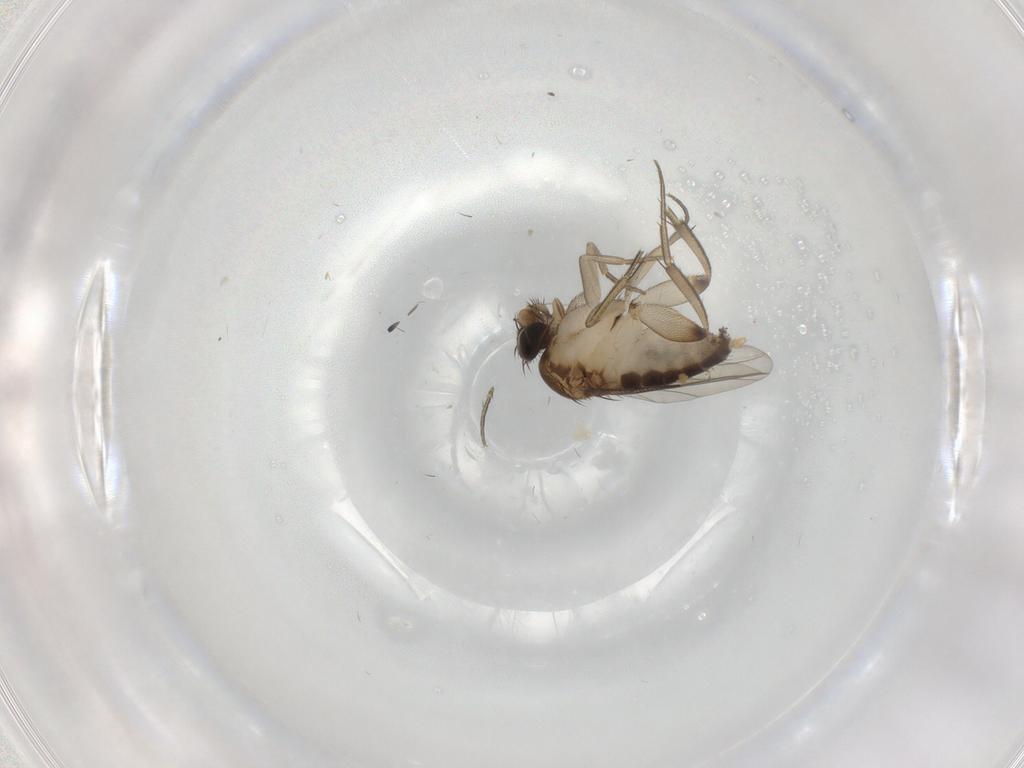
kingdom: Animalia
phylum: Arthropoda
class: Insecta
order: Diptera
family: Phoridae
